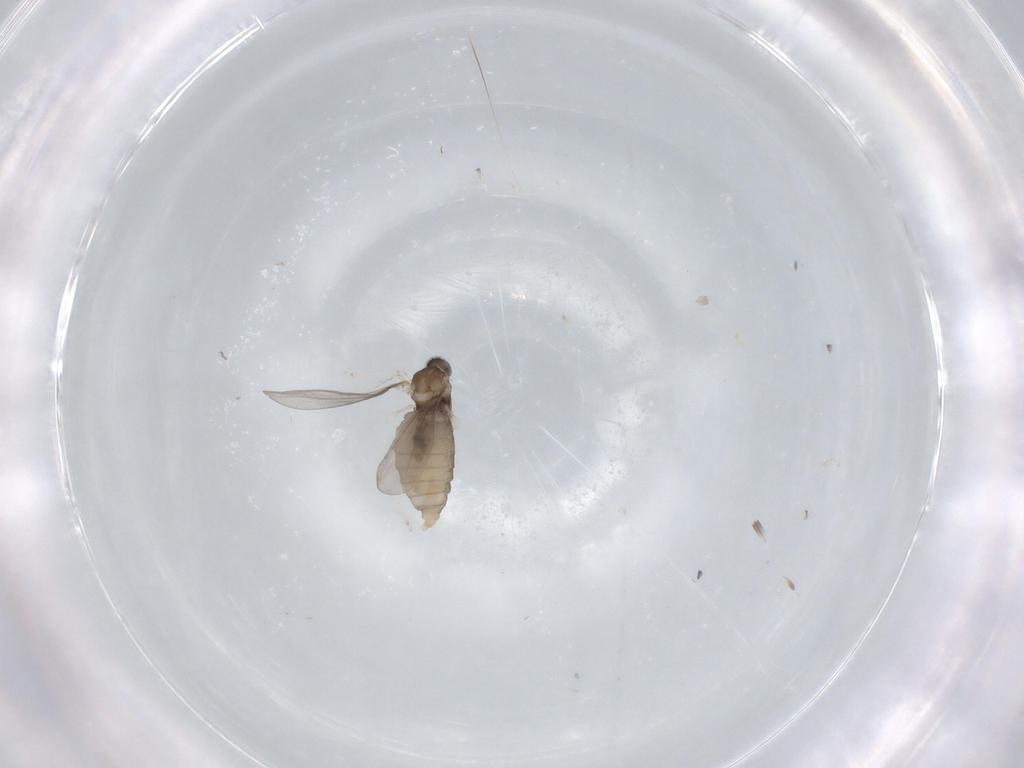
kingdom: Animalia
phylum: Arthropoda
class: Insecta
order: Diptera
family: Cecidomyiidae
